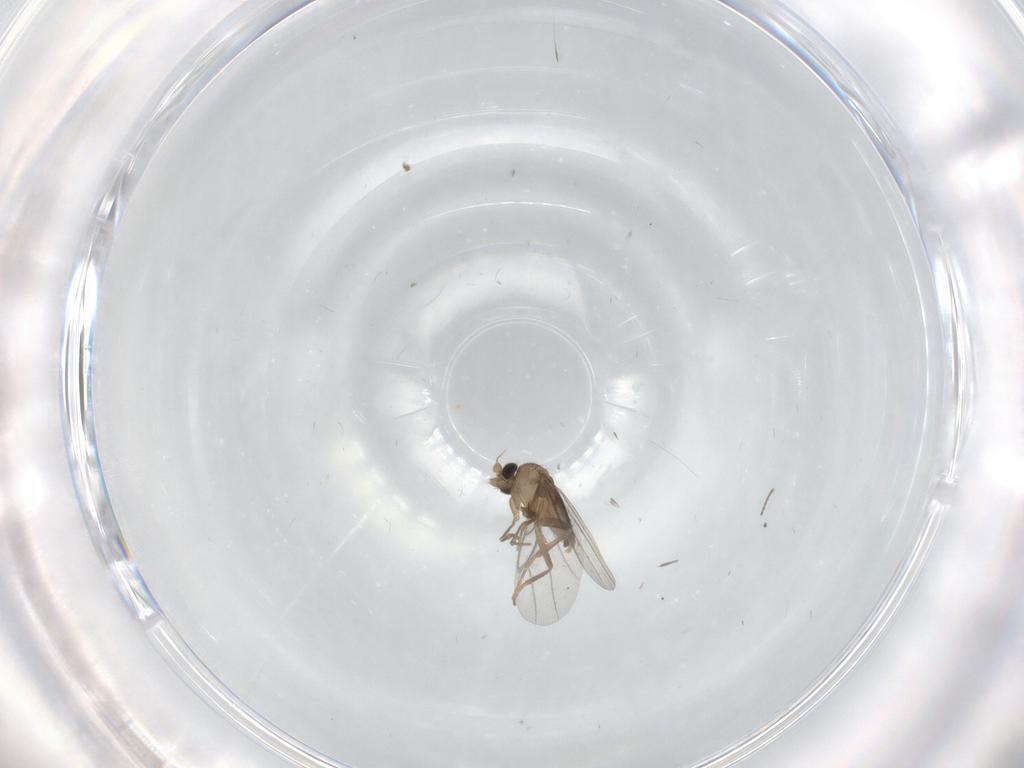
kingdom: Animalia
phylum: Arthropoda
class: Insecta
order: Diptera
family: Cecidomyiidae
